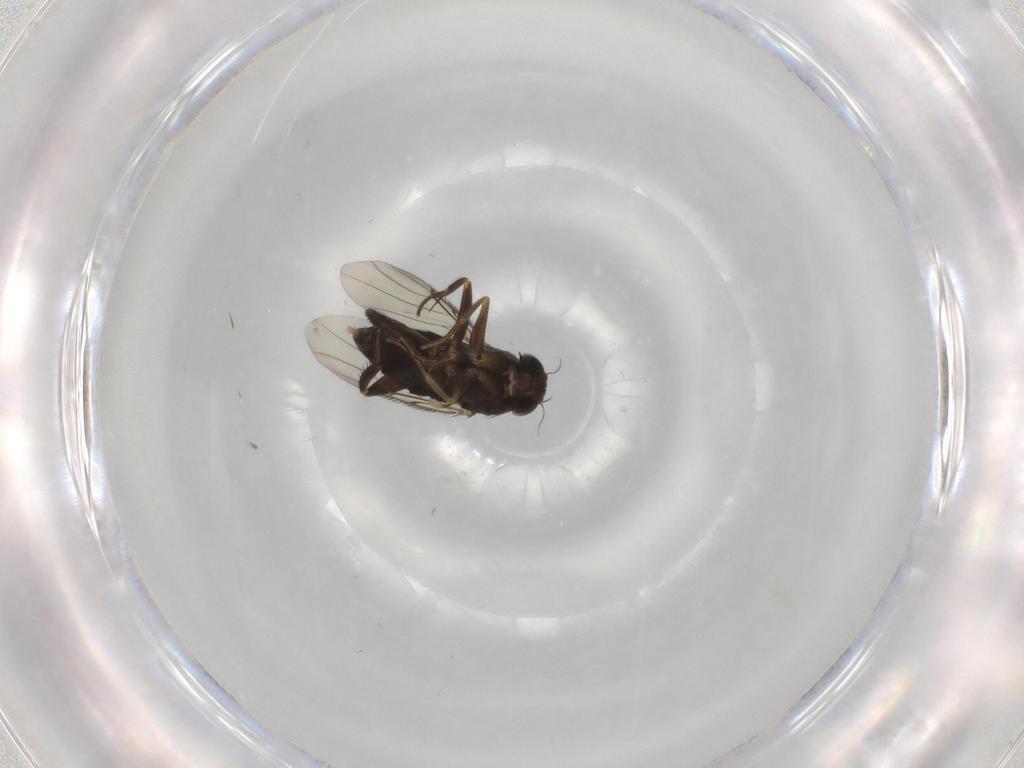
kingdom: Animalia
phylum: Arthropoda
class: Insecta
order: Diptera
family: Phoridae
